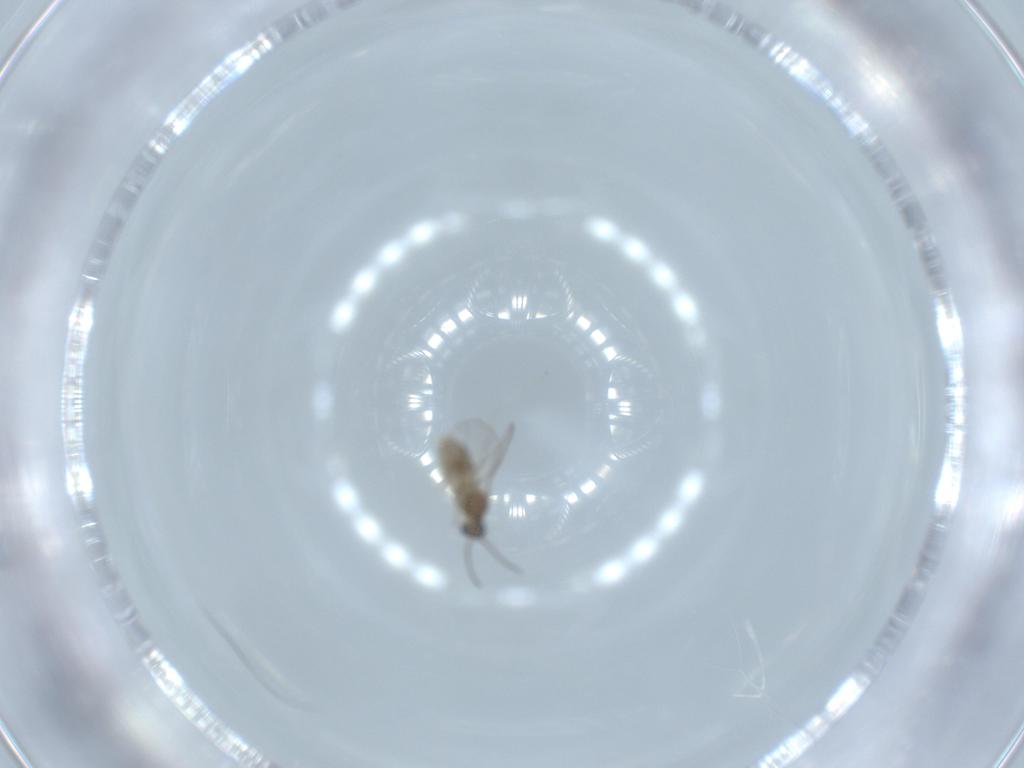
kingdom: Animalia
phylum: Arthropoda
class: Insecta
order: Diptera
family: Cecidomyiidae
